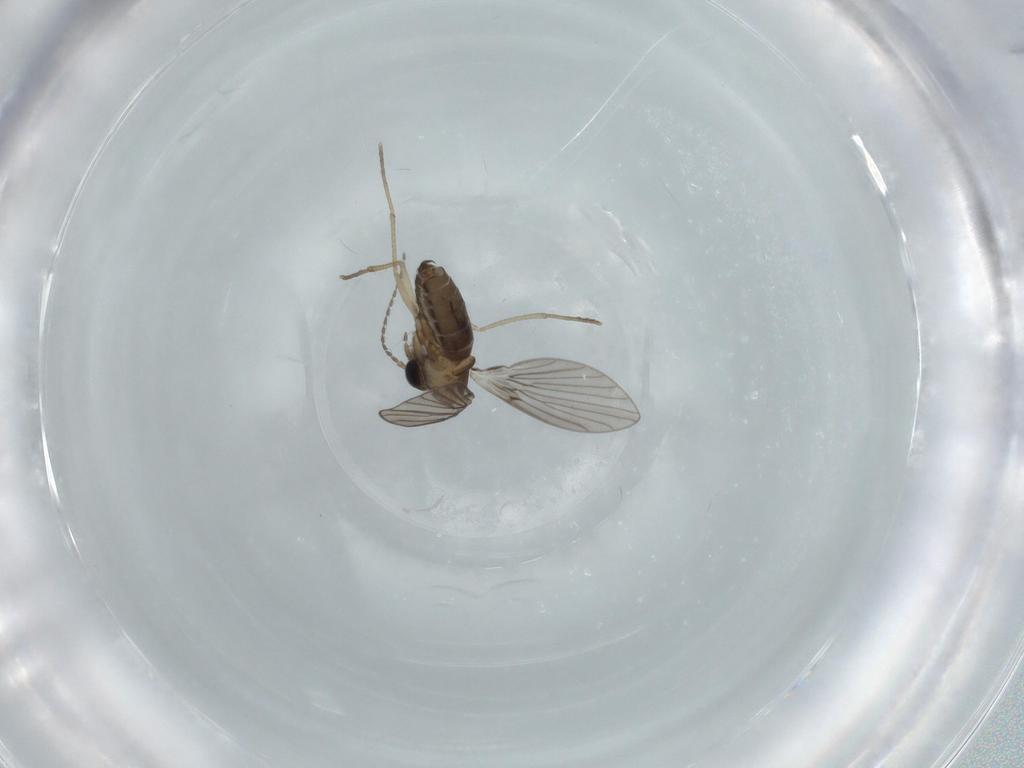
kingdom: Animalia
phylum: Arthropoda
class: Insecta
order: Diptera
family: Psychodidae
